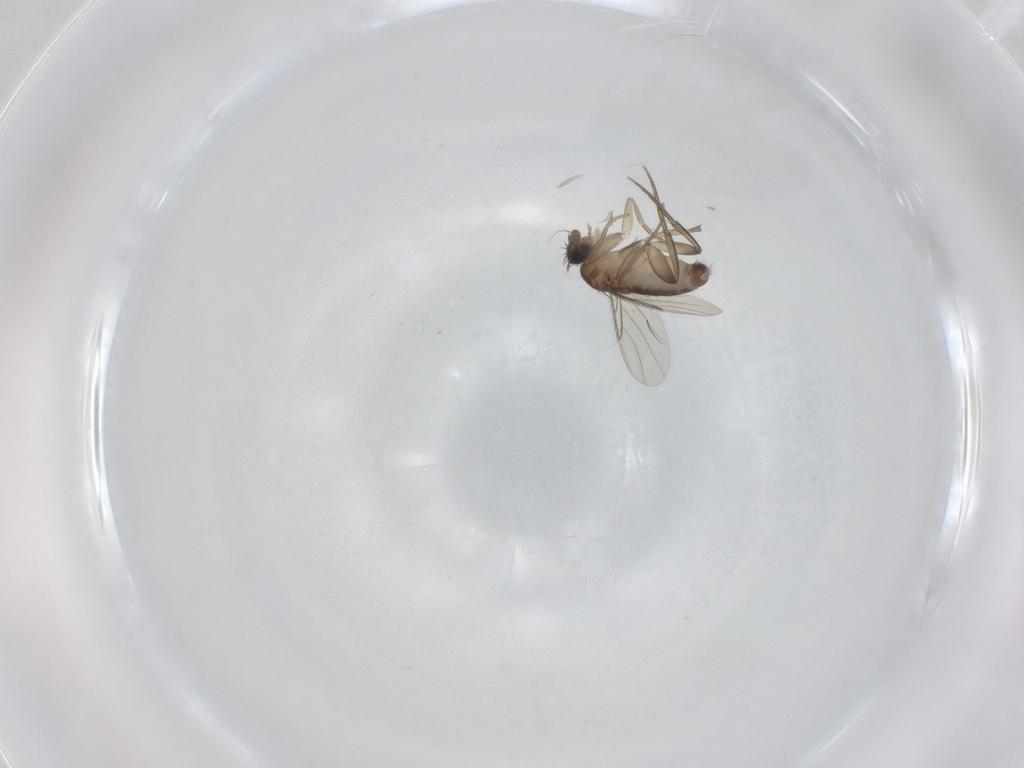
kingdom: Animalia
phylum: Arthropoda
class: Insecta
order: Diptera
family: Phoridae
